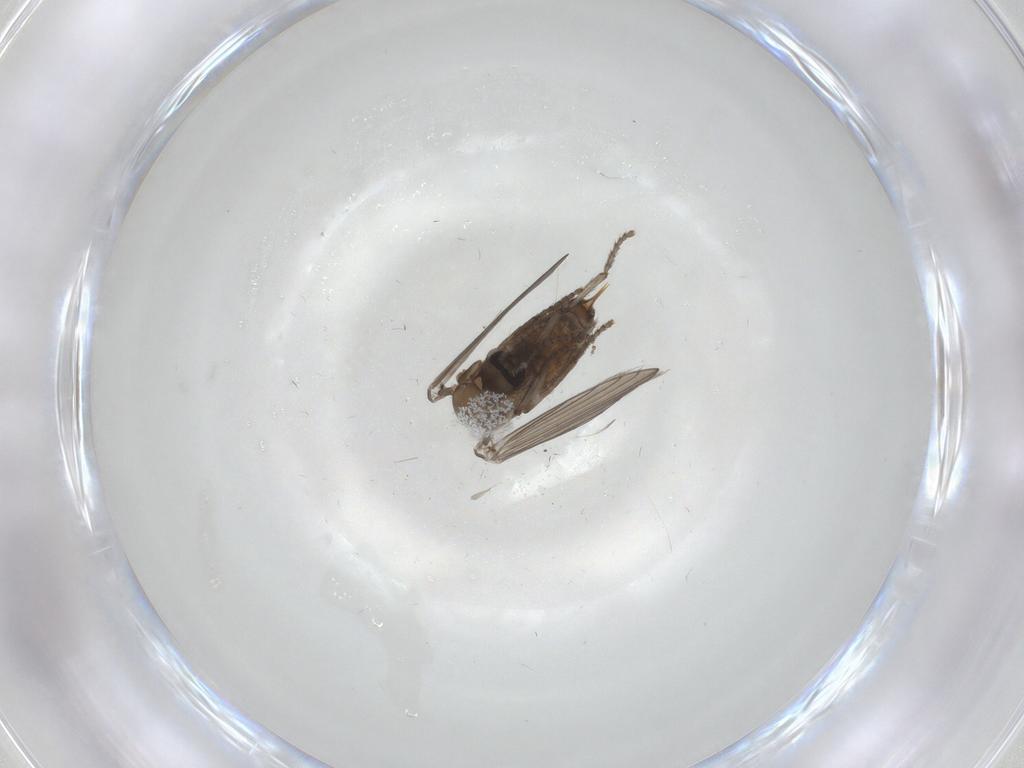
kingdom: Animalia
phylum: Arthropoda
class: Insecta
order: Diptera
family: Psychodidae
